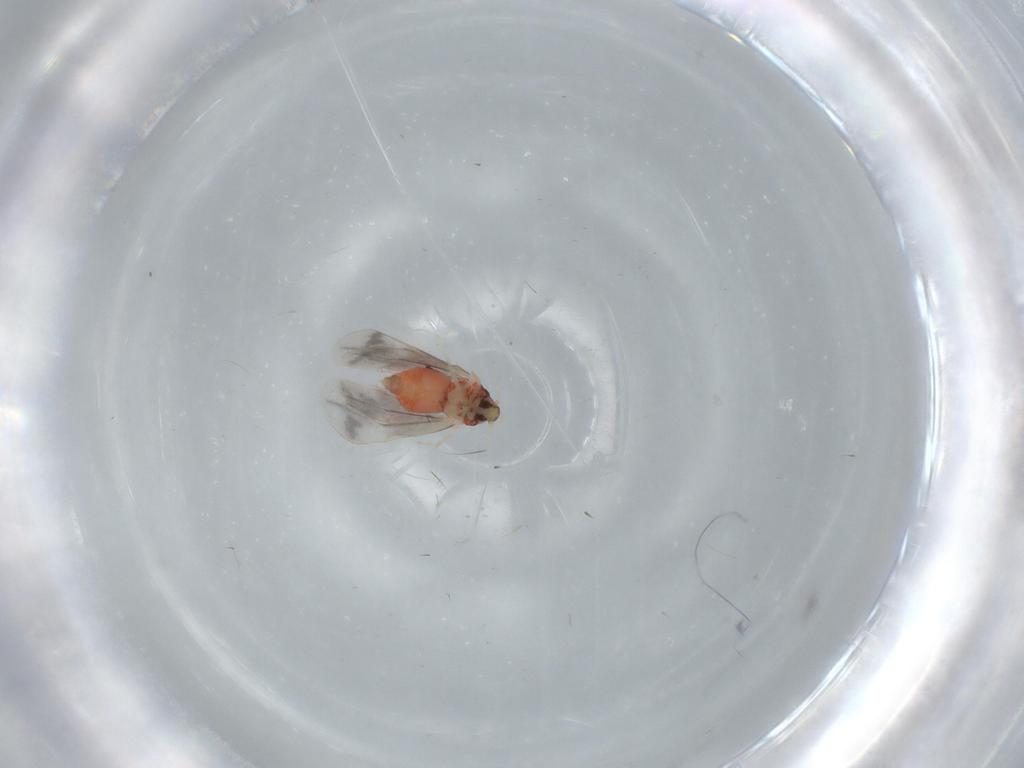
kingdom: Animalia
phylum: Arthropoda
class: Insecta
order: Hemiptera
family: Aleyrodidae
